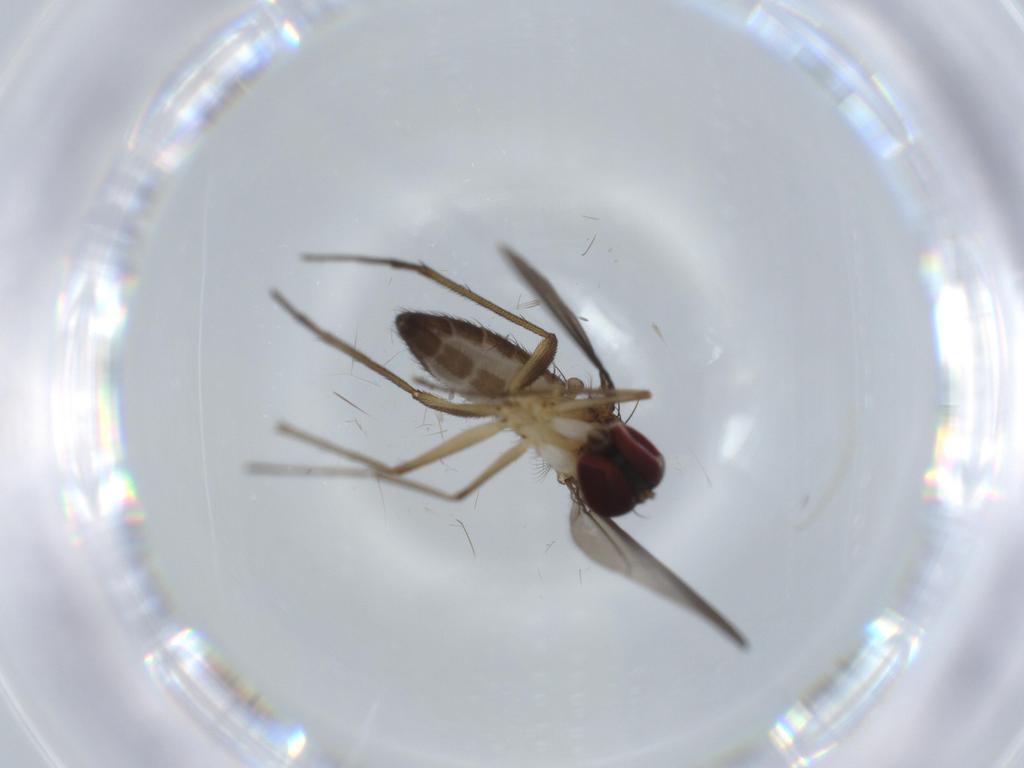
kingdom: Animalia
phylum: Arthropoda
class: Insecta
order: Diptera
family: Dolichopodidae
